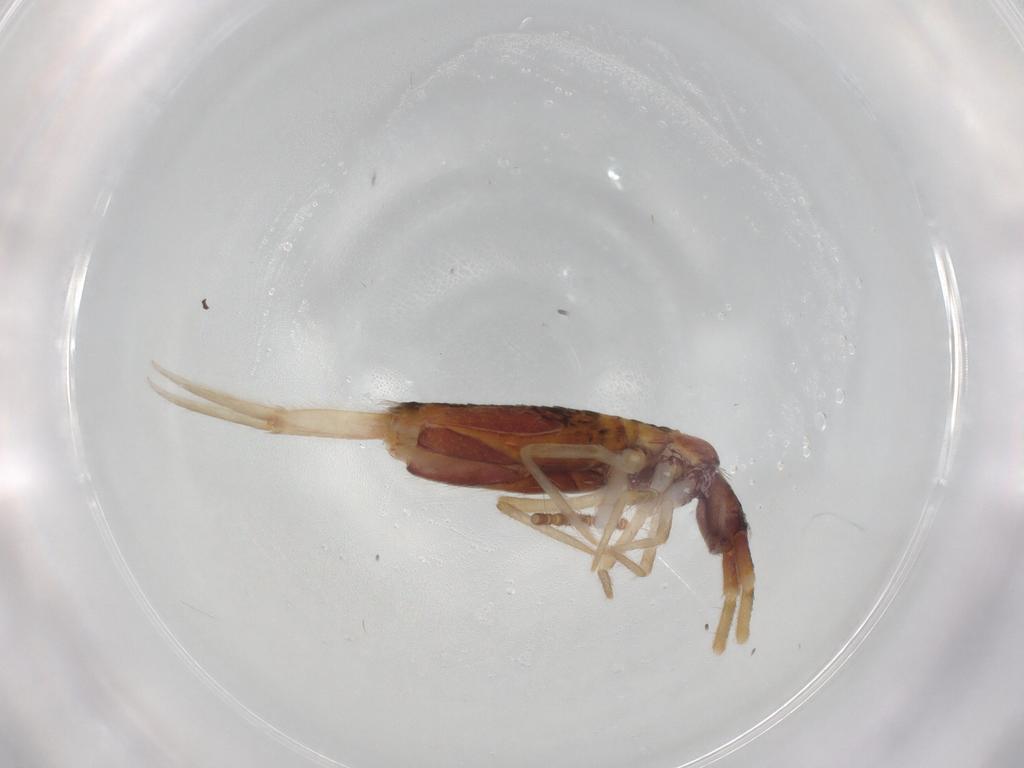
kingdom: Animalia
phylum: Arthropoda
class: Collembola
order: Entomobryomorpha
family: Entomobryidae
